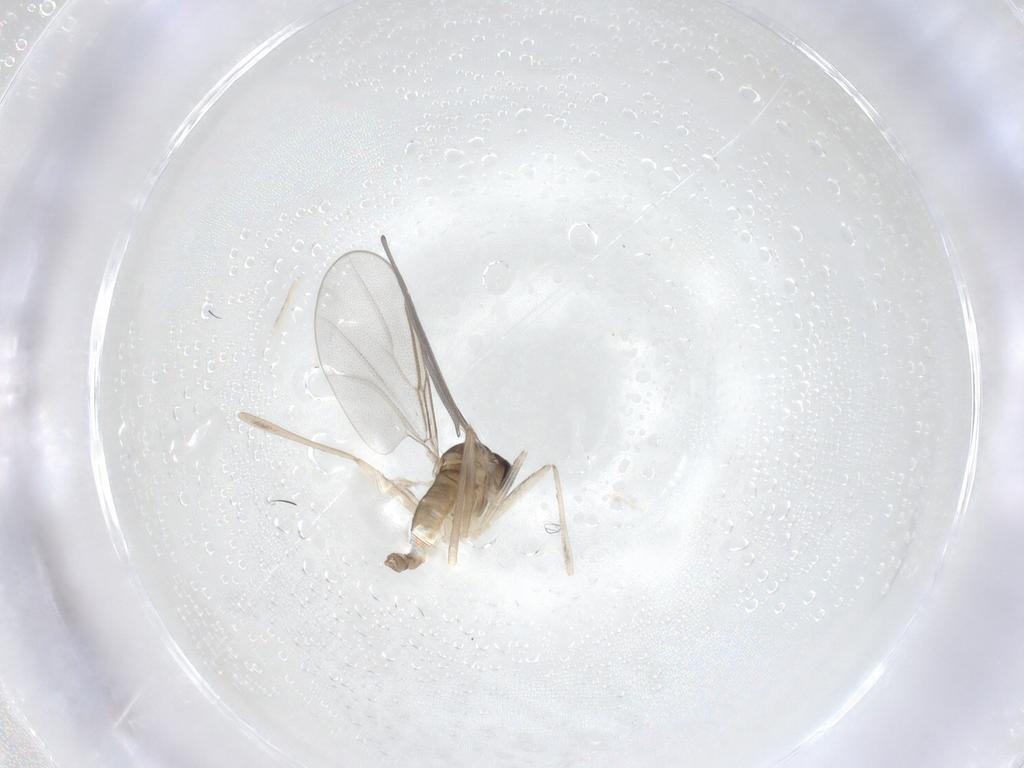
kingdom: Animalia
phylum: Arthropoda
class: Insecta
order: Diptera
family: Cecidomyiidae
